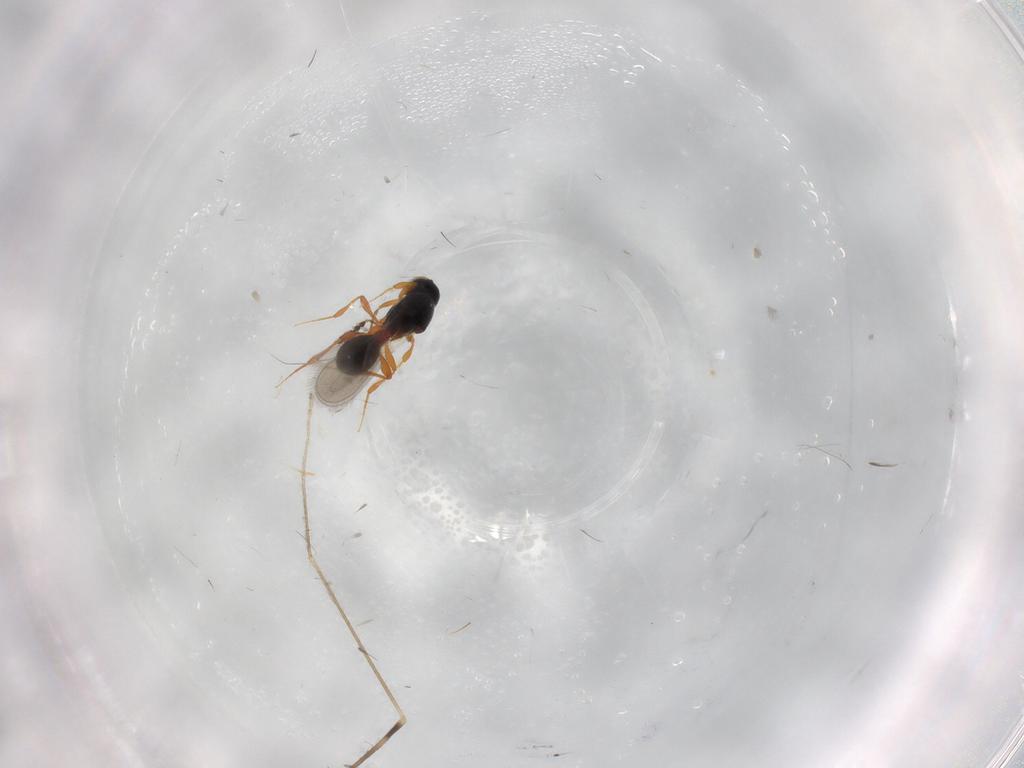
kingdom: Animalia
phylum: Arthropoda
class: Insecta
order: Hymenoptera
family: Platygastridae
